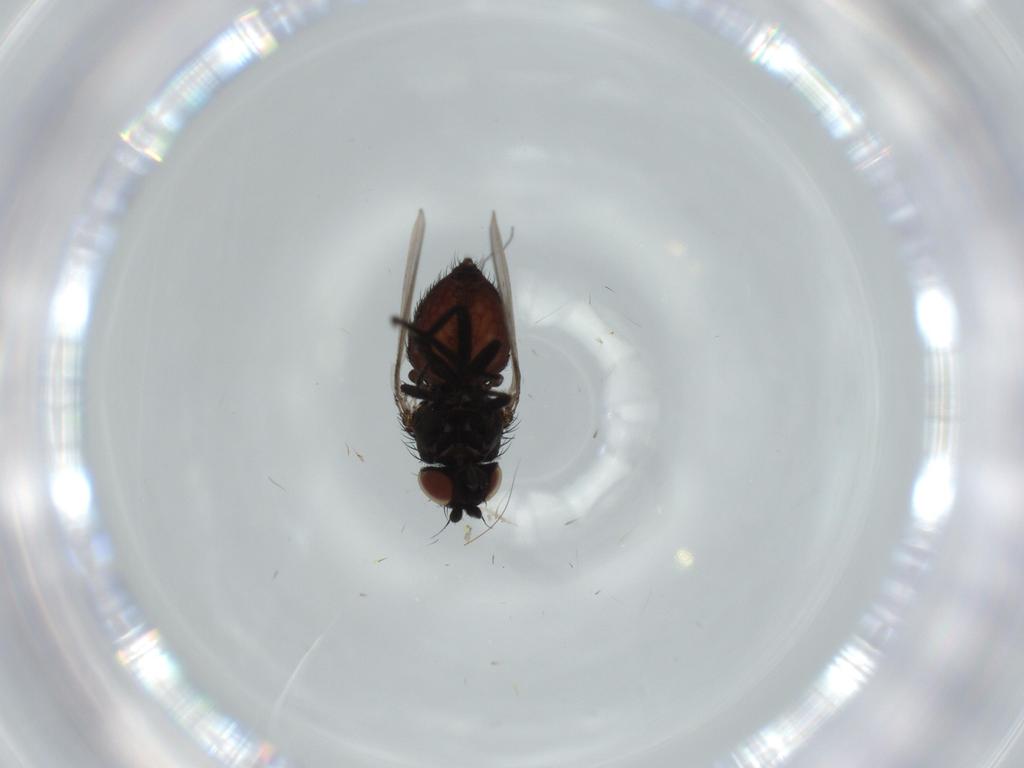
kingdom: Animalia
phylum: Arthropoda
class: Insecta
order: Diptera
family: Milichiidae
